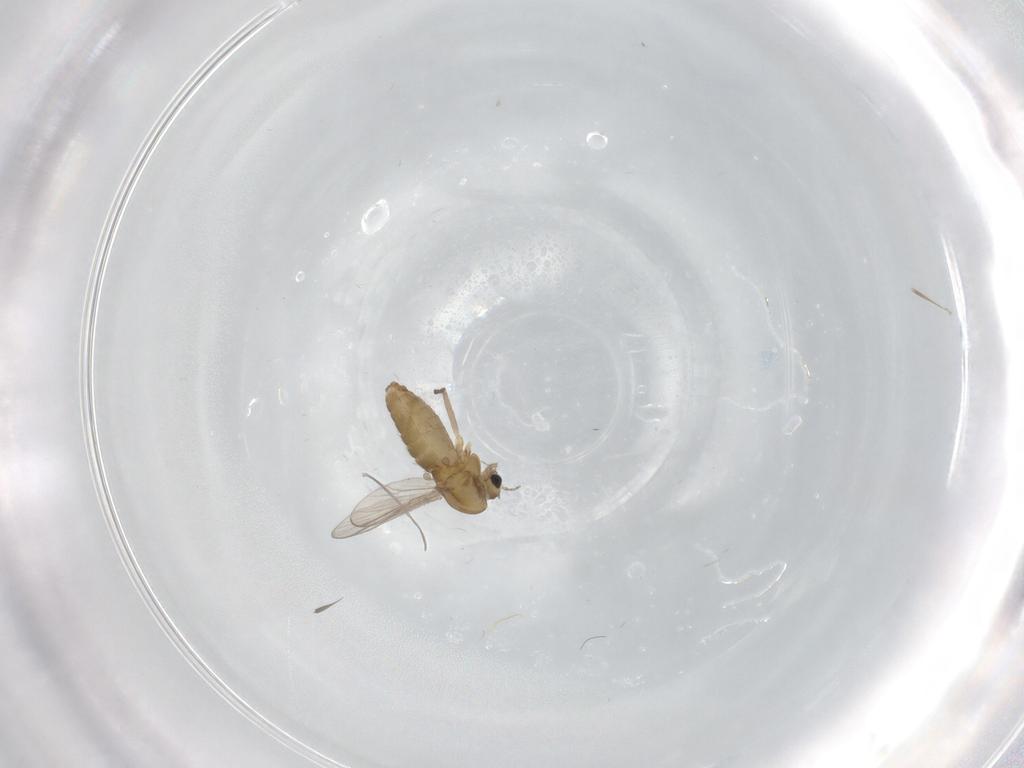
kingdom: Animalia
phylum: Arthropoda
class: Insecta
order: Diptera
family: Chironomidae
